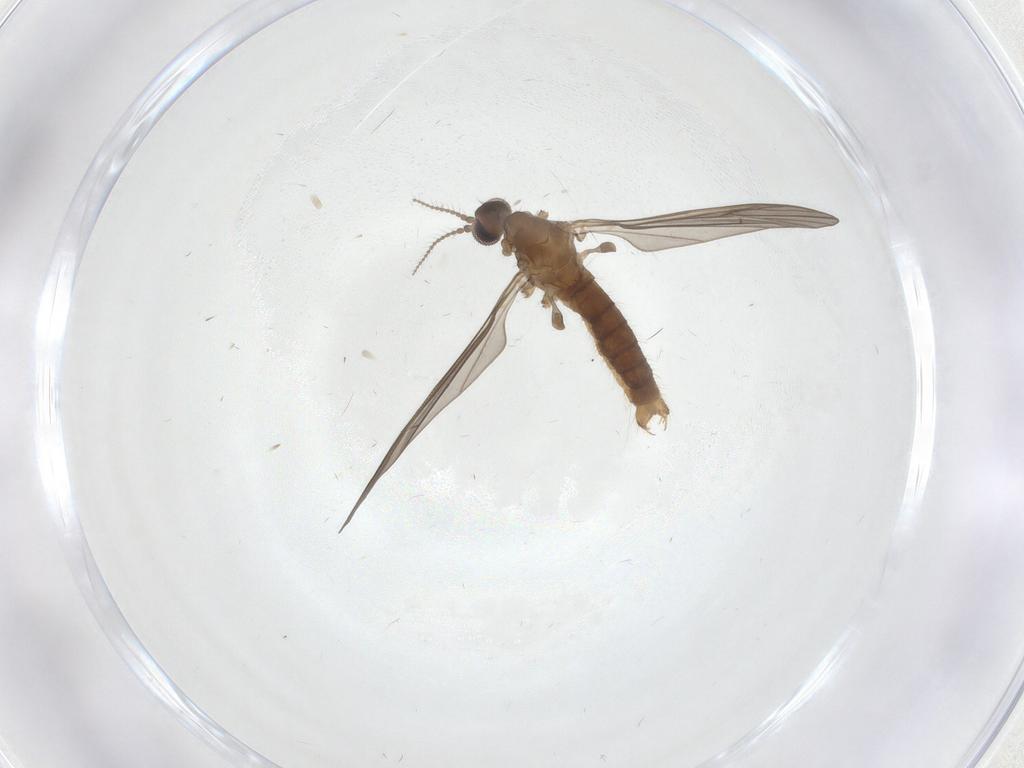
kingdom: Animalia
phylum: Arthropoda
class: Insecta
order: Diptera
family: Limoniidae
